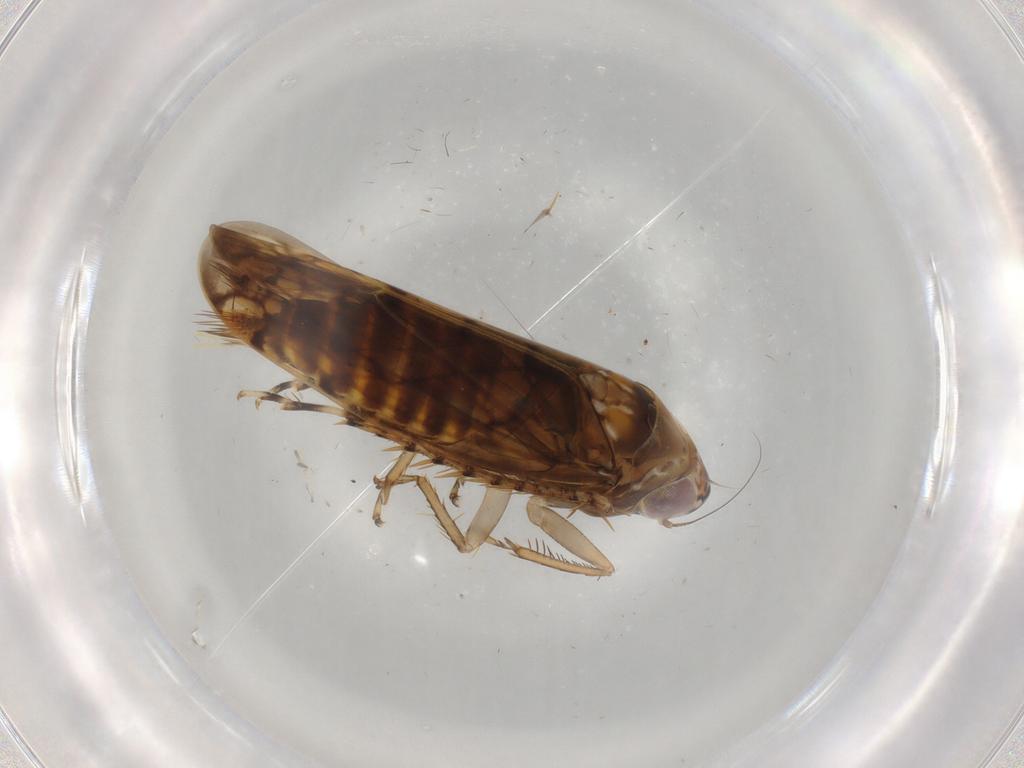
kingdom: Animalia
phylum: Arthropoda
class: Insecta
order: Hemiptera
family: Cicadellidae
